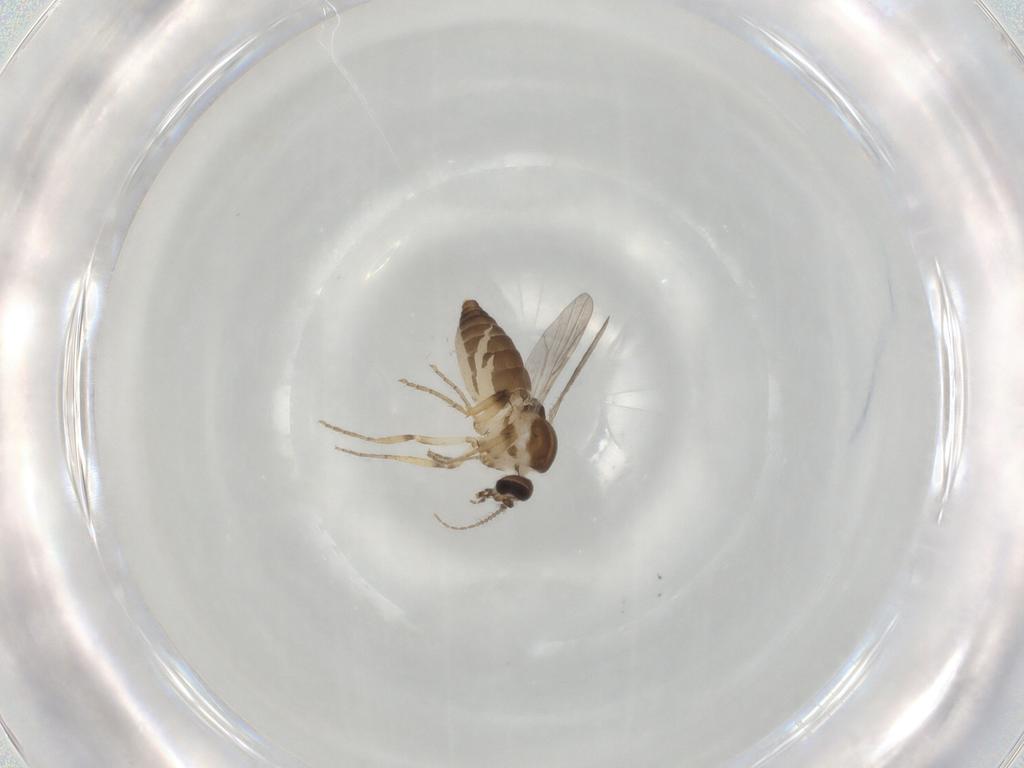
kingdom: Animalia
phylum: Arthropoda
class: Insecta
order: Diptera
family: Ceratopogonidae
